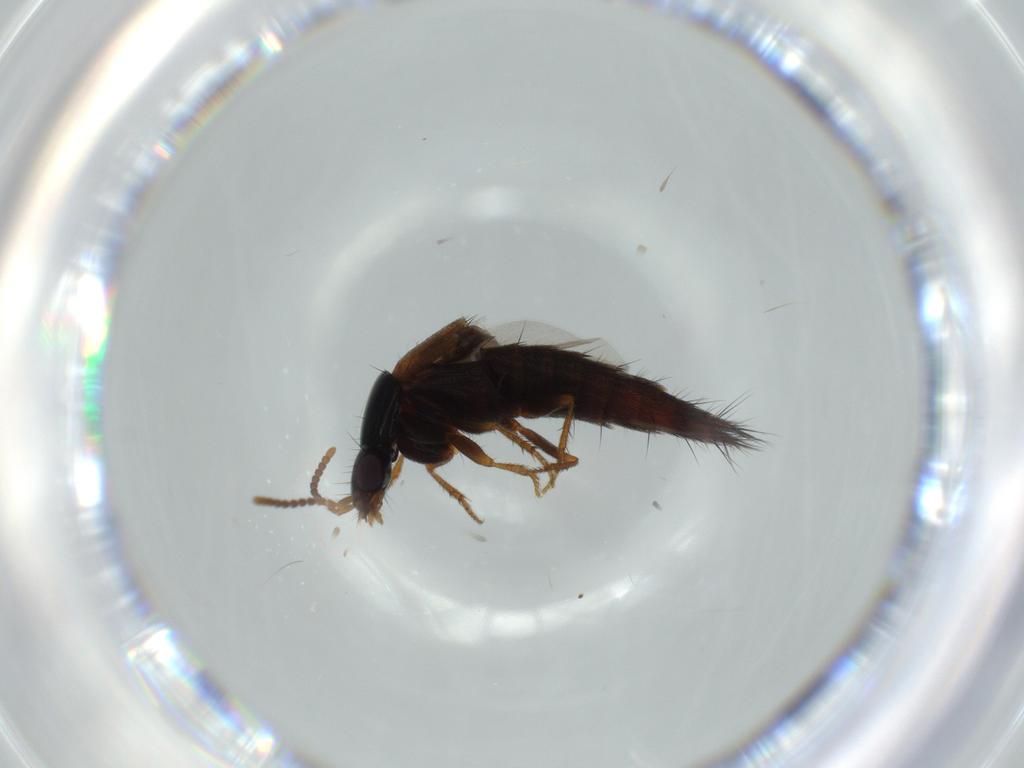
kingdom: Animalia
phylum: Arthropoda
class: Insecta
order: Coleoptera
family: Staphylinidae
